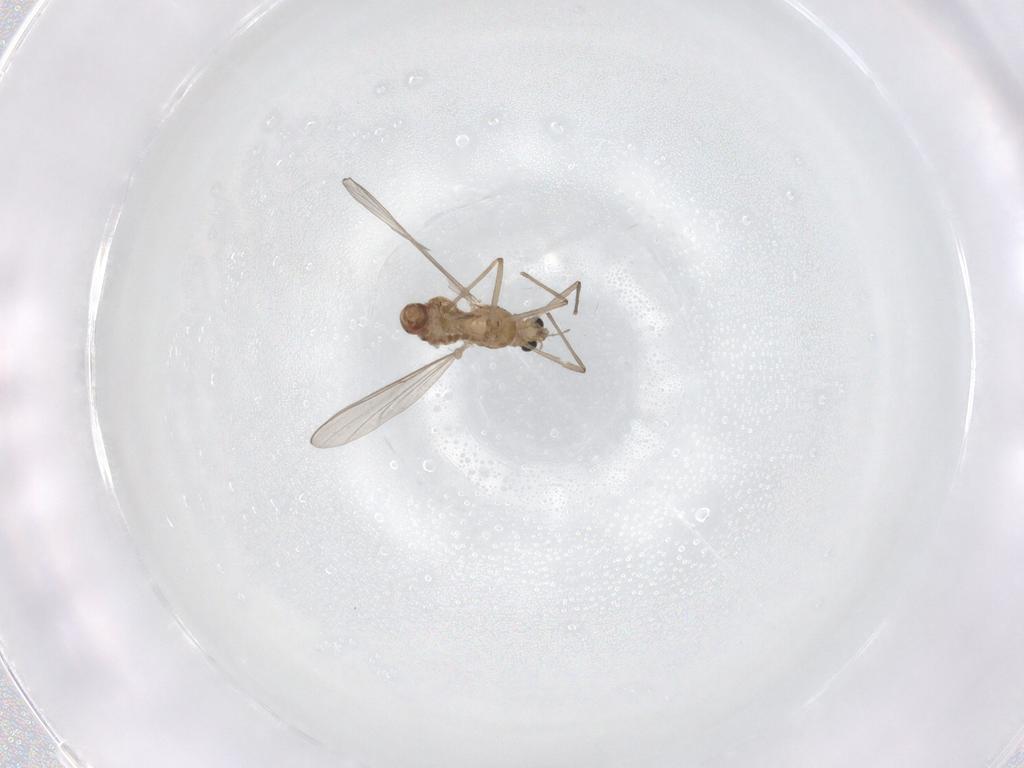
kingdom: Animalia
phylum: Arthropoda
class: Insecta
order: Diptera
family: Chironomidae
